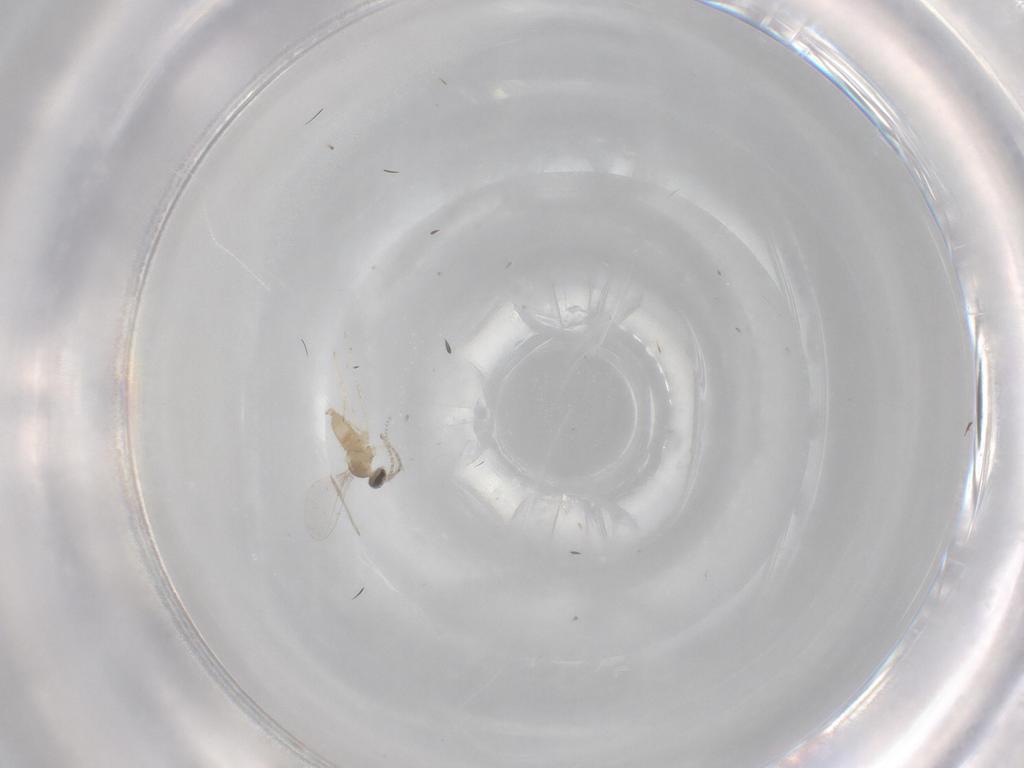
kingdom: Animalia
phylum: Arthropoda
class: Insecta
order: Diptera
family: Cecidomyiidae
